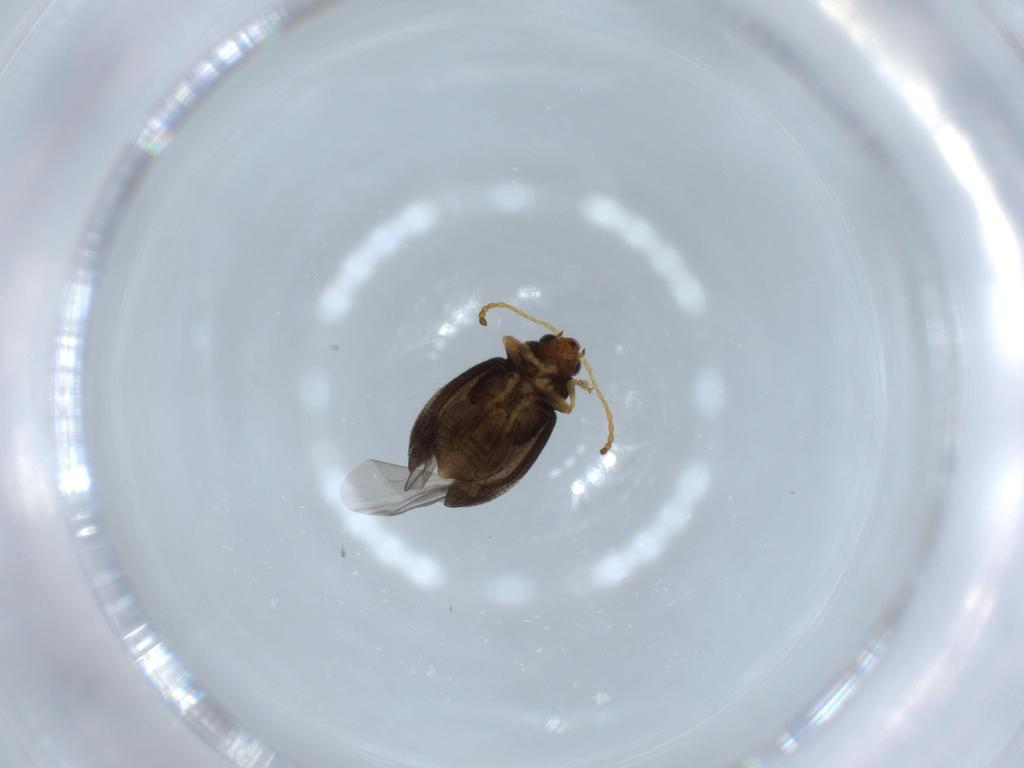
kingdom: Animalia
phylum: Arthropoda
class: Insecta
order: Coleoptera
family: Chrysomelidae
